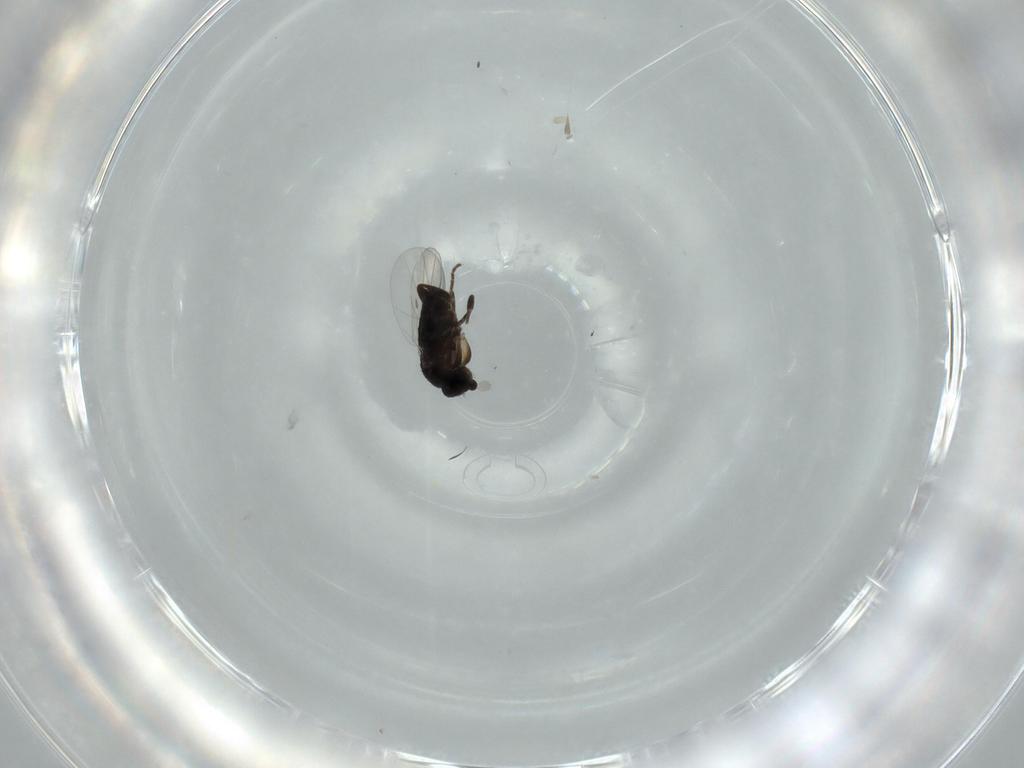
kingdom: Animalia
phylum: Arthropoda
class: Insecta
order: Diptera
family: Phoridae
